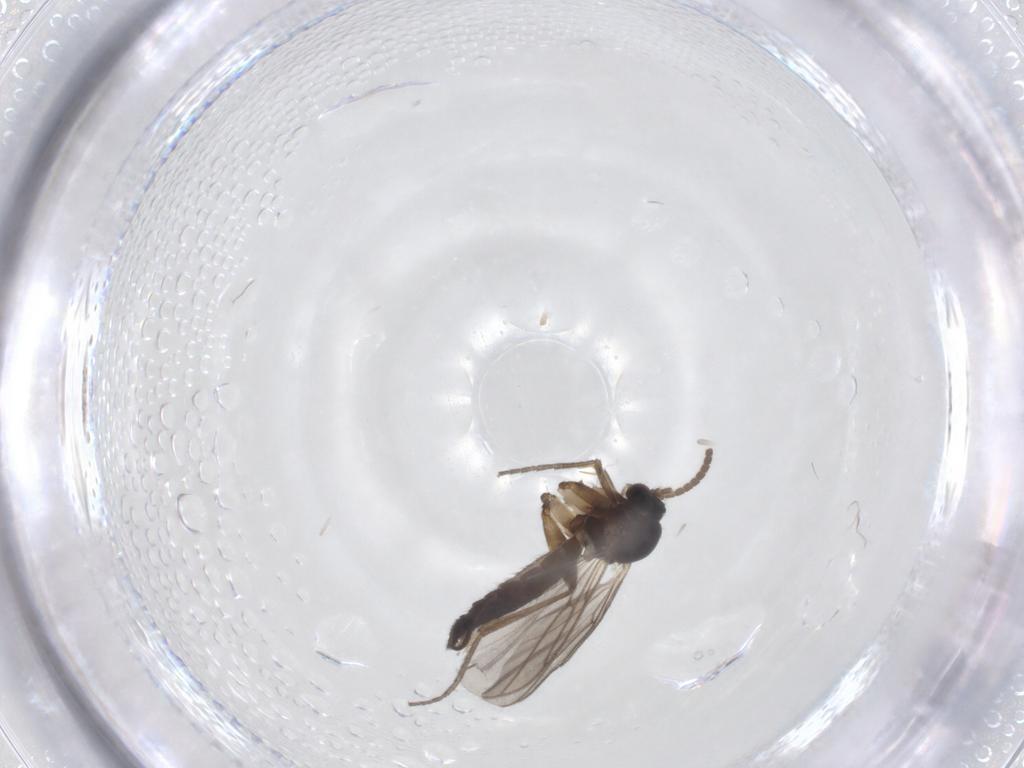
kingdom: Animalia
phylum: Arthropoda
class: Insecta
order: Diptera
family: Mycetophilidae
